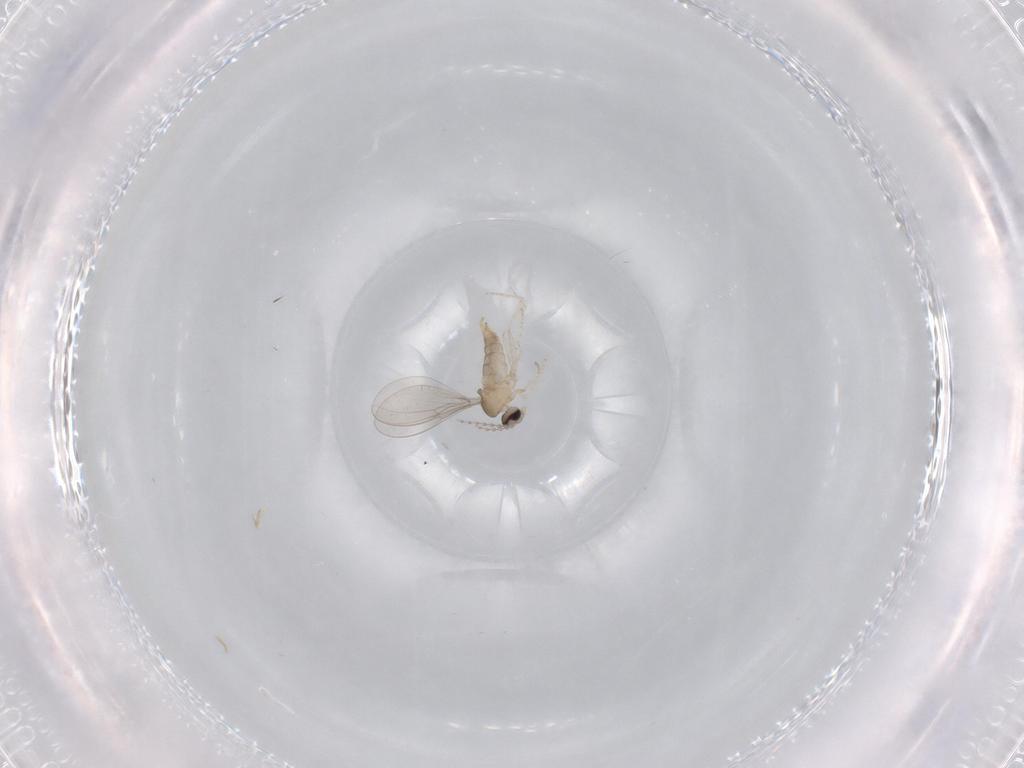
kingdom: Animalia
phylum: Arthropoda
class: Insecta
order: Diptera
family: Cecidomyiidae
